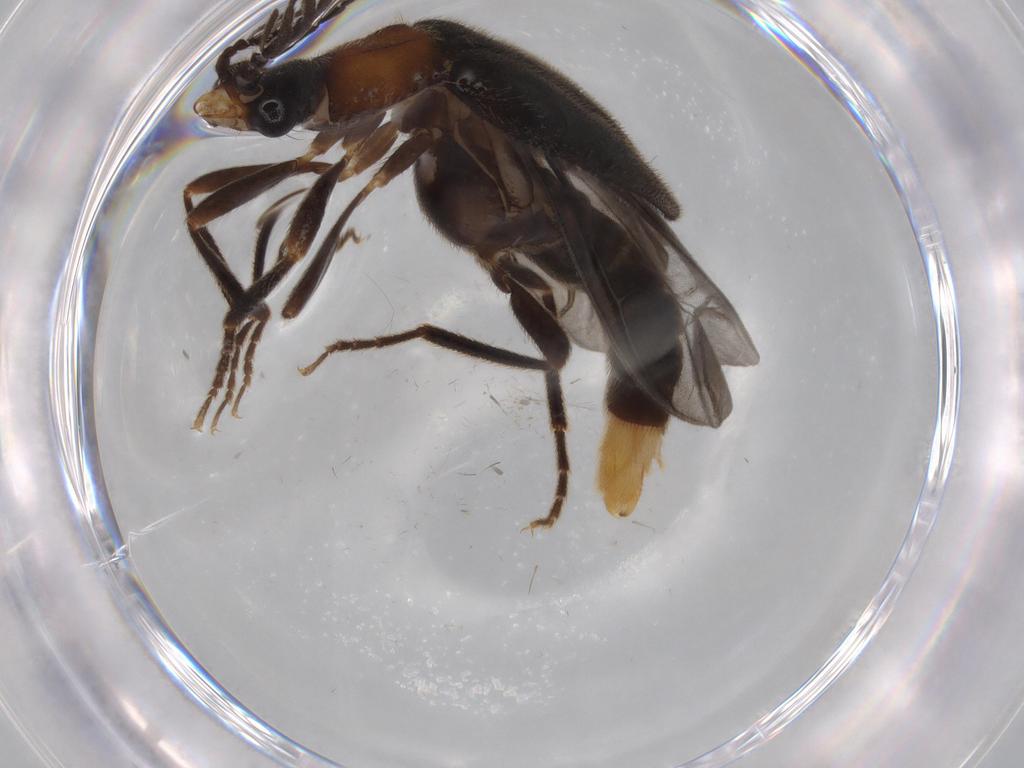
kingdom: Animalia
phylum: Arthropoda
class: Insecta
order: Coleoptera
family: Phengodidae
